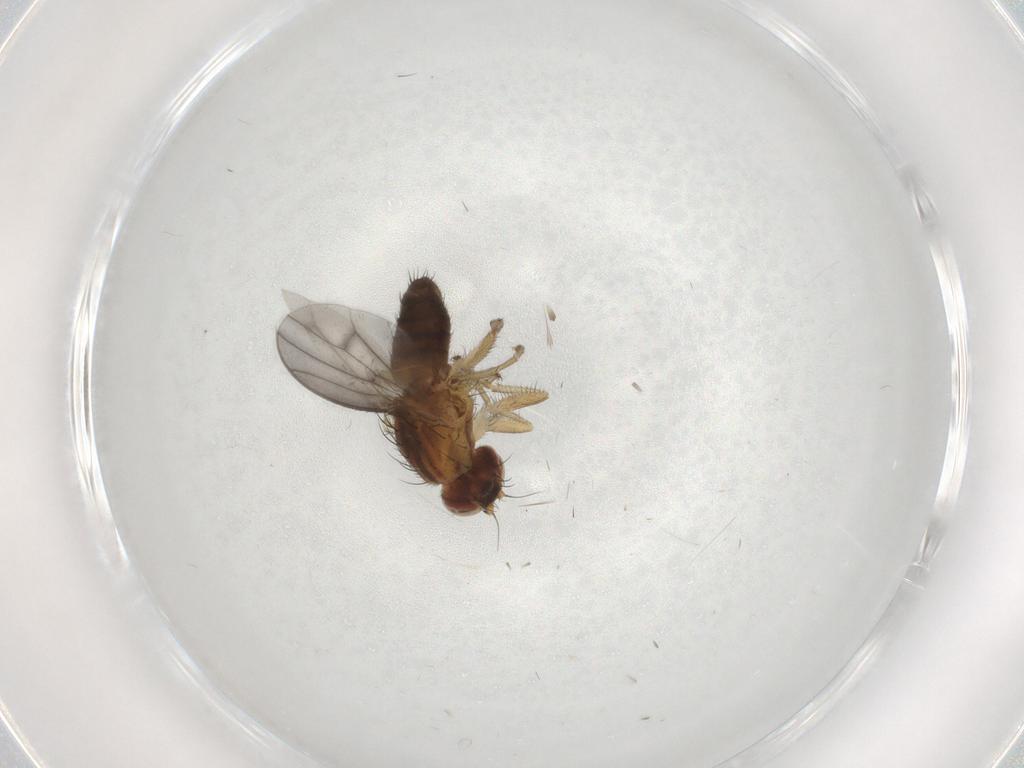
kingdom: Animalia
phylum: Arthropoda
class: Insecta
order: Diptera
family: Heleomyzidae
